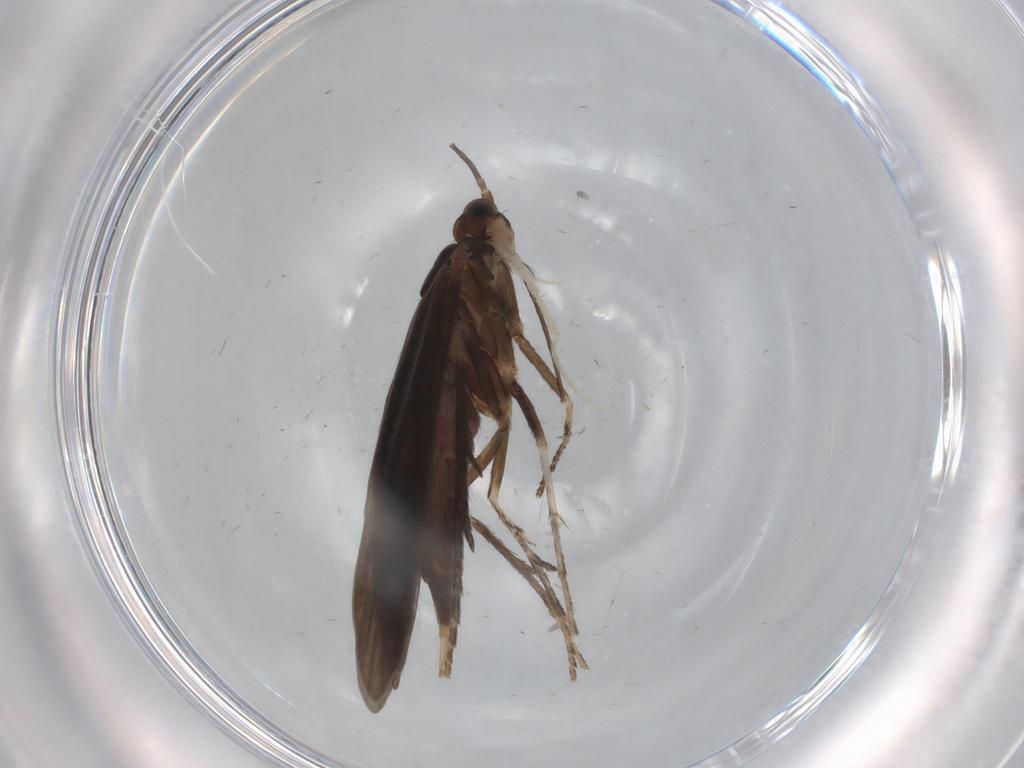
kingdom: Animalia
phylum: Arthropoda
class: Insecta
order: Trichoptera
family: Xiphocentronidae
